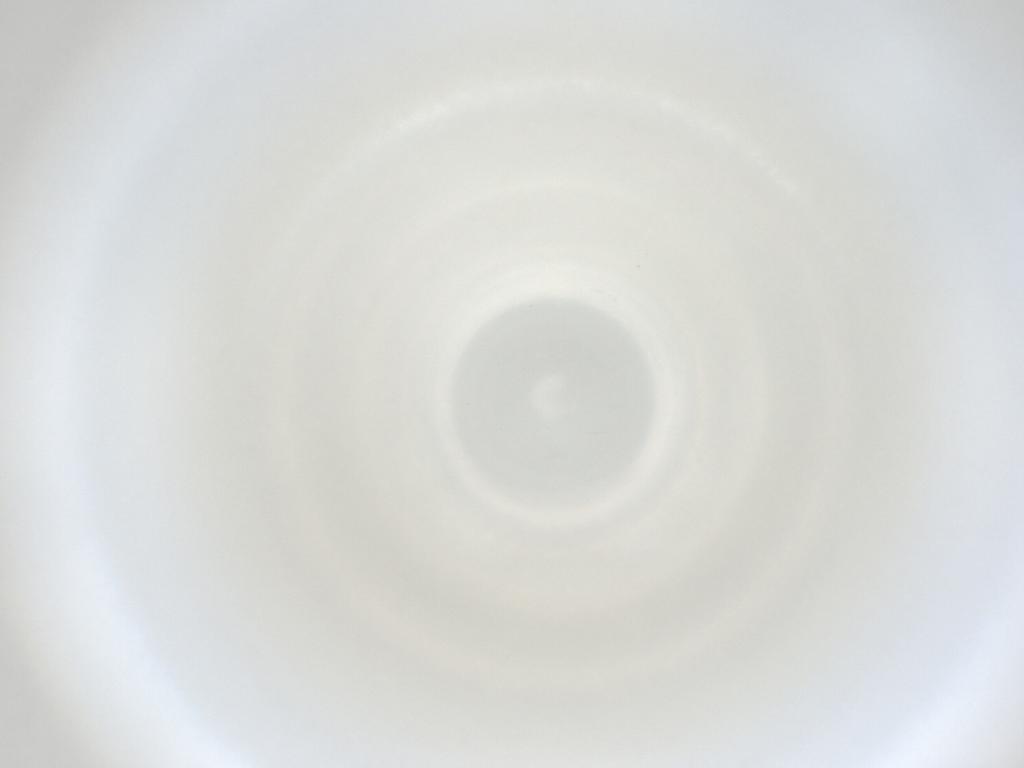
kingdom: Animalia
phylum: Arthropoda
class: Insecta
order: Diptera
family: Cecidomyiidae
